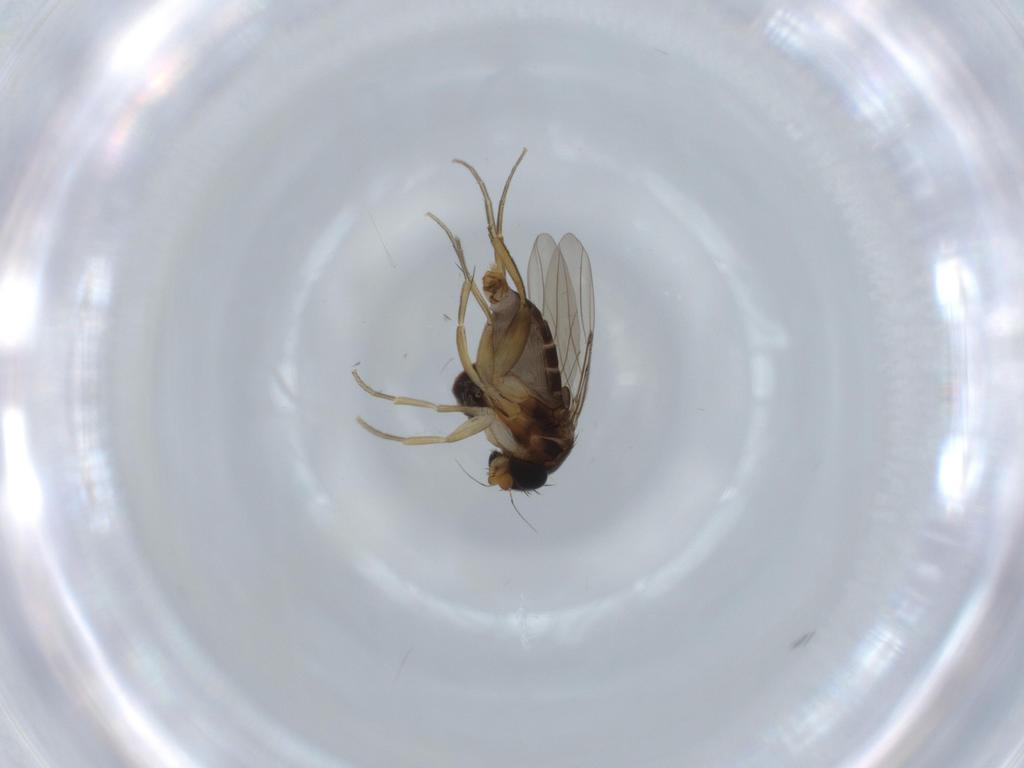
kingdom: Animalia
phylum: Arthropoda
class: Insecta
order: Diptera
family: Phoridae
